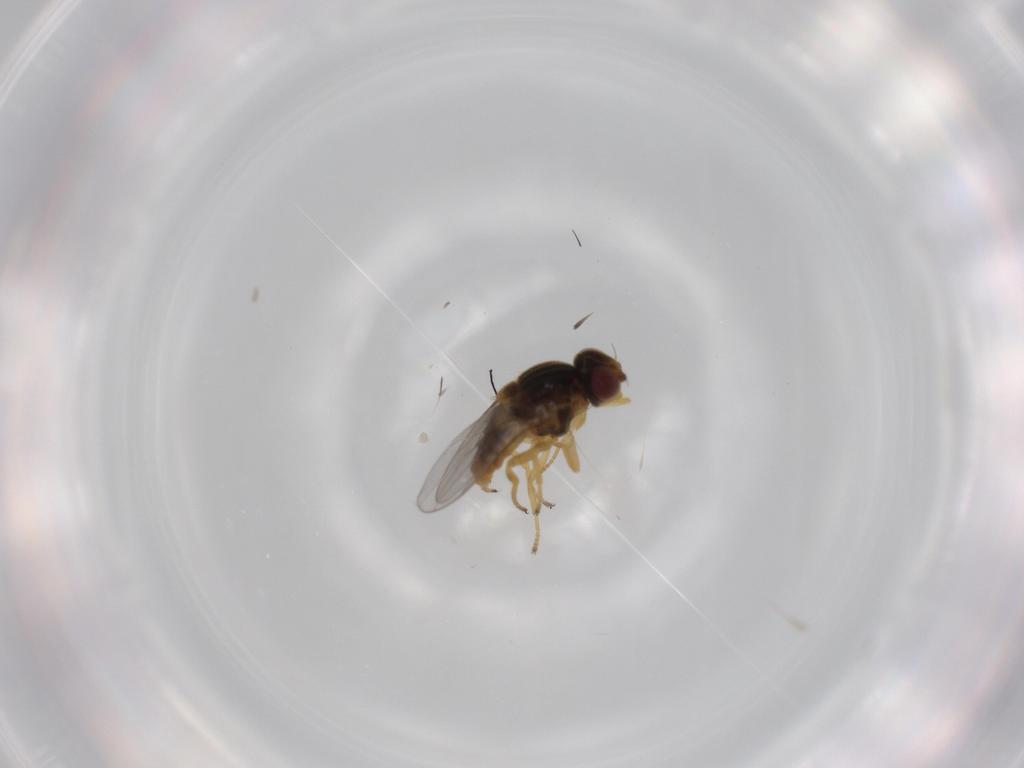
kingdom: Animalia
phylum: Arthropoda
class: Insecta
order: Diptera
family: Chloropidae
